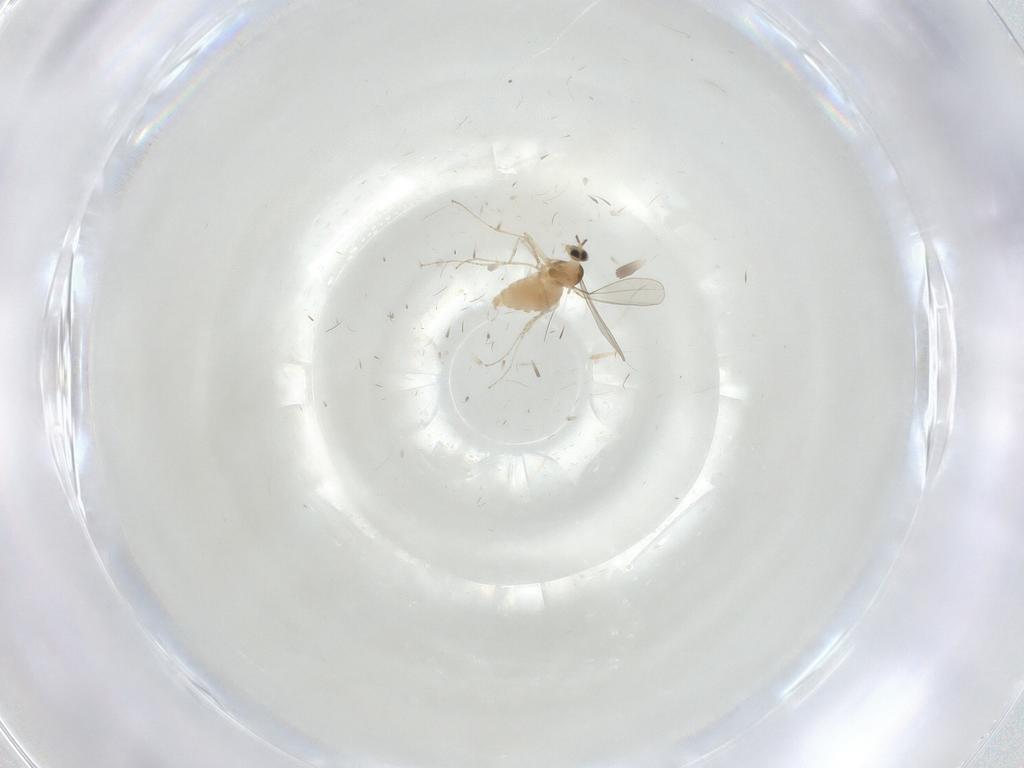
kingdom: Animalia
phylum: Arthropoda
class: Insecta
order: Diptera
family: Cecidomyiidae
